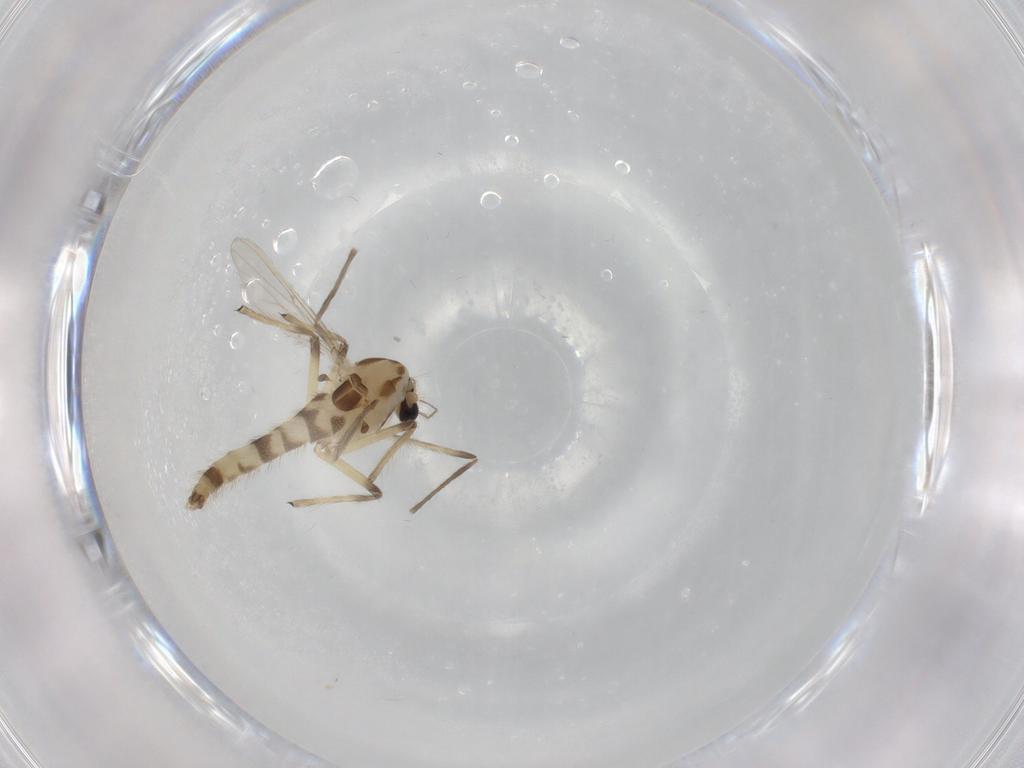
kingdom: Animalia
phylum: Arthropoda
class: Insecta
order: Diptera
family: Chironomidae
